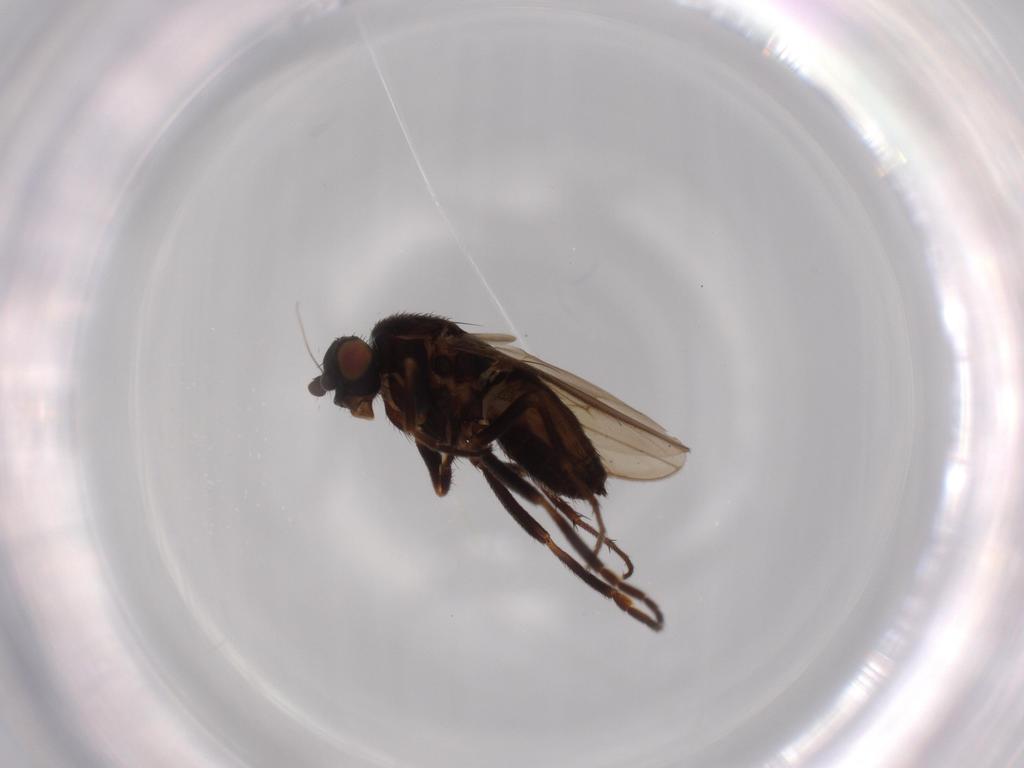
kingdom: Animalia
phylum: Arthropoda
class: Insecta
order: Diptera
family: Sphaeroceridae
